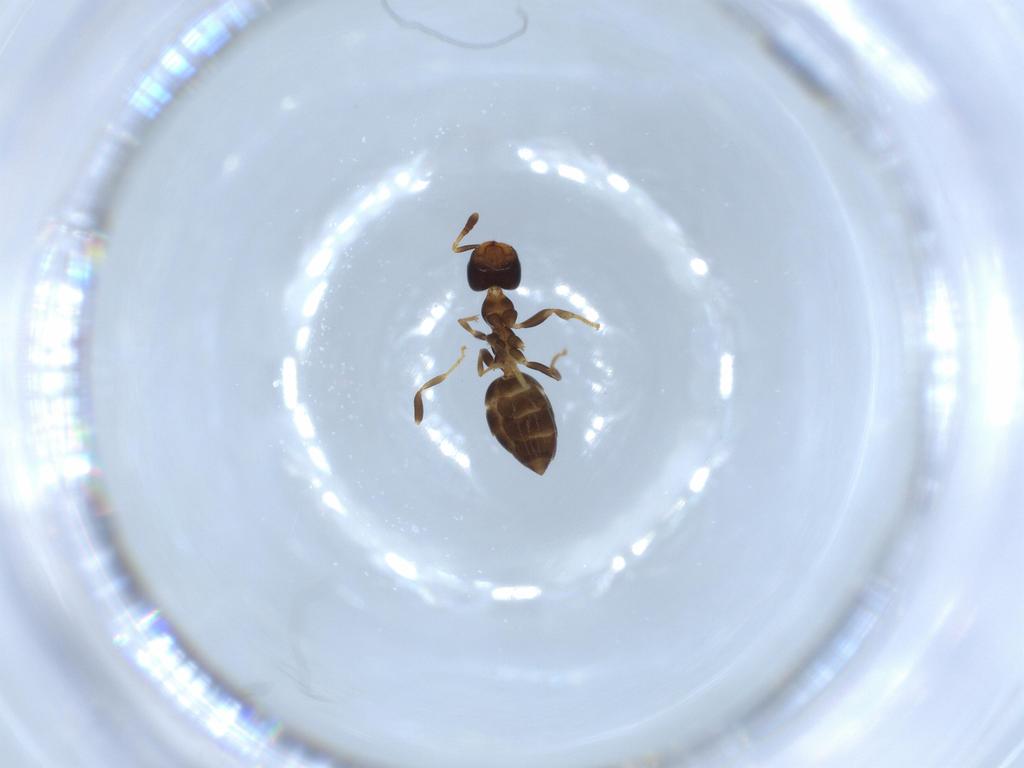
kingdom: Animalia
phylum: Arthropoda
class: Insecta
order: Hymenoptera
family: Formicidae
